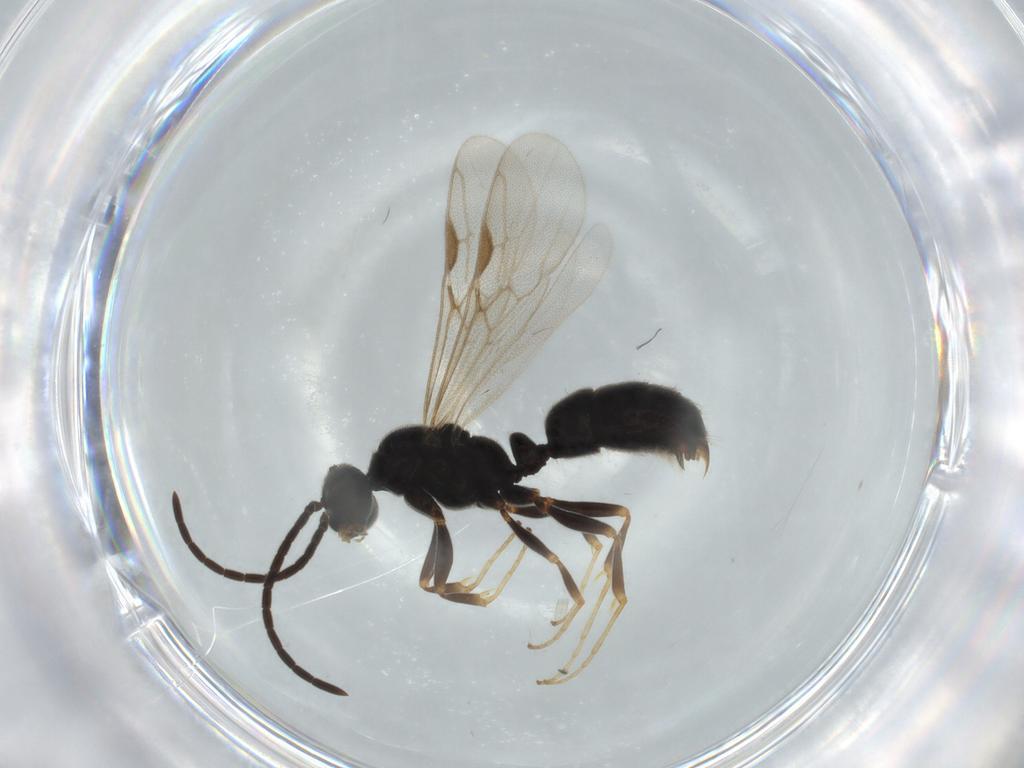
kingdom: Animalia
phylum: Arthropoda
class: Insecta
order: Hymenoptera
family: Formicidae
